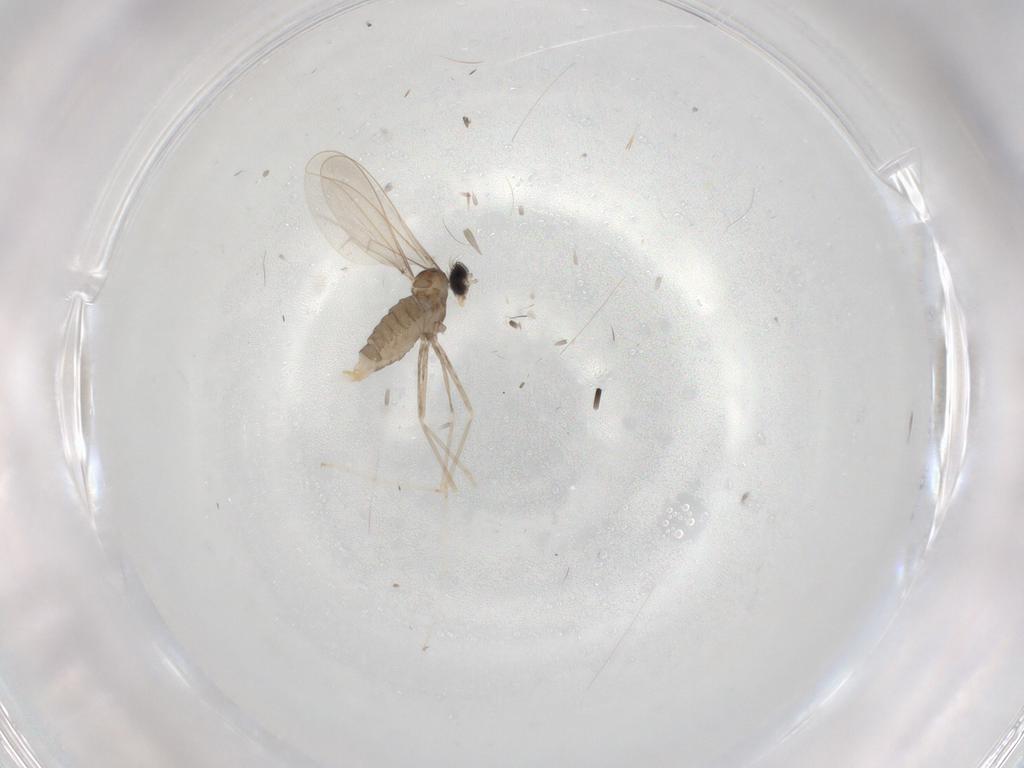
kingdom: Animalia
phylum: Arthropoda
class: Insecta
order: Diptera
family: Cecidomyiidae
